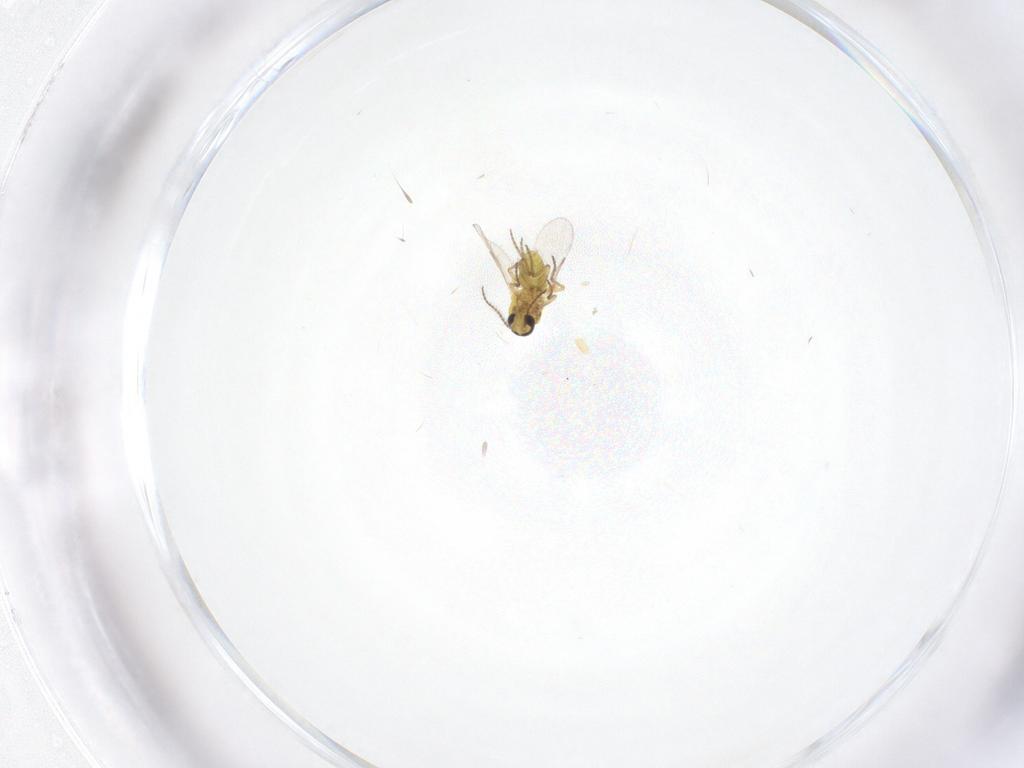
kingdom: Animalia
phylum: Arthropoda
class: Insecta
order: Diptera
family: Ceratopogonidae
